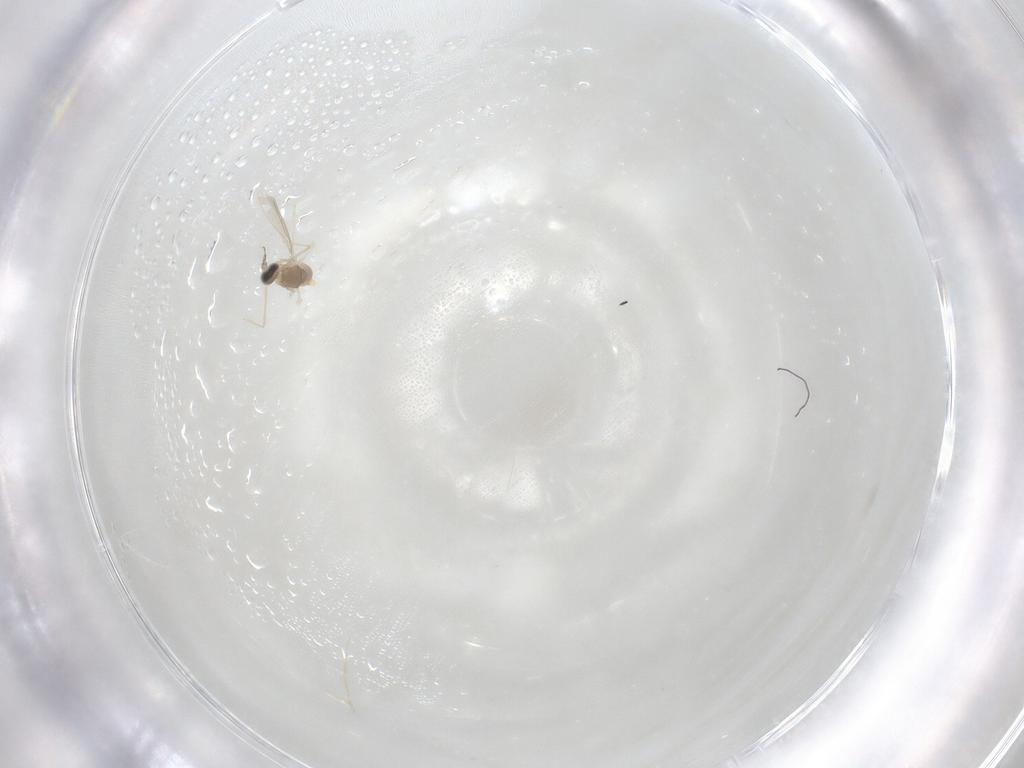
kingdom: Animalia
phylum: Arthropoda
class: Insecta
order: Diptera
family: Cecidomyiidae
